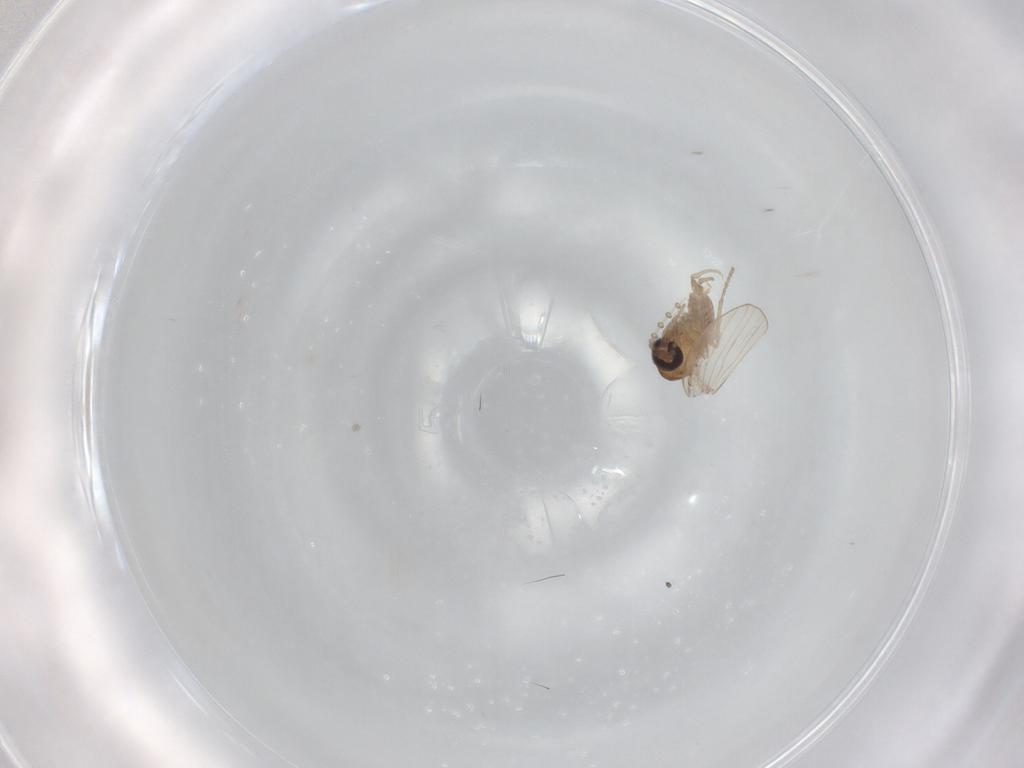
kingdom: Animalia
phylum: Arthropoda
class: Insecta
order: Diptera
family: Psychodidae
